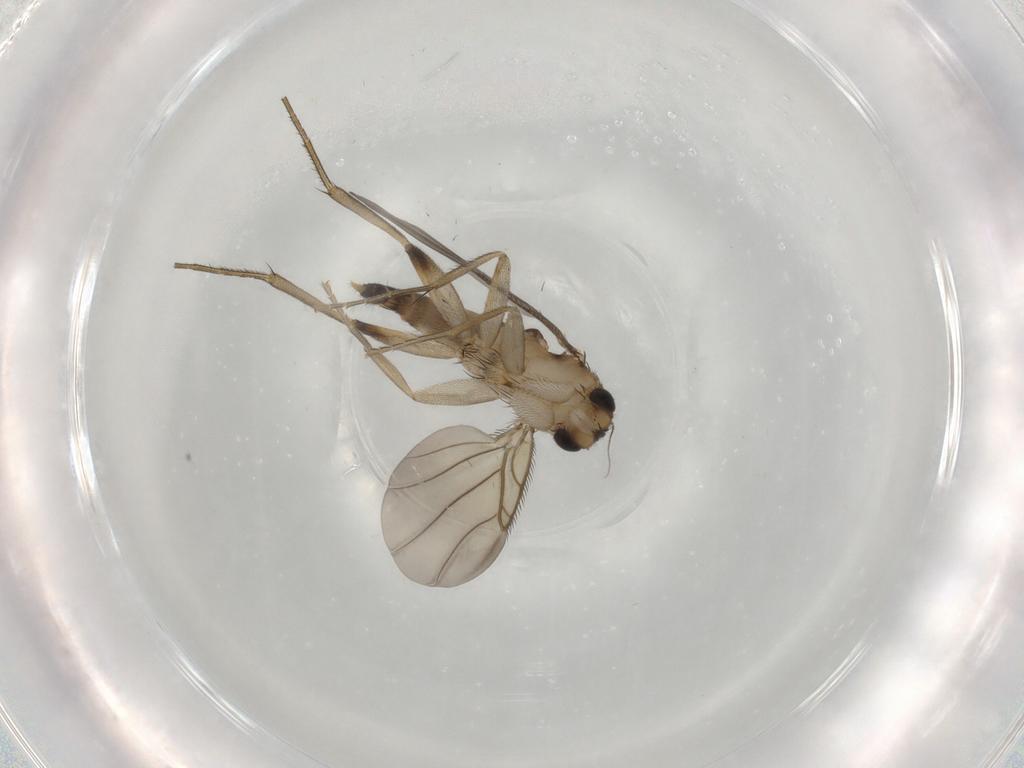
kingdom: Animalia
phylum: Arthropoda
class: Insecta
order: Diptera
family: Phoridae
